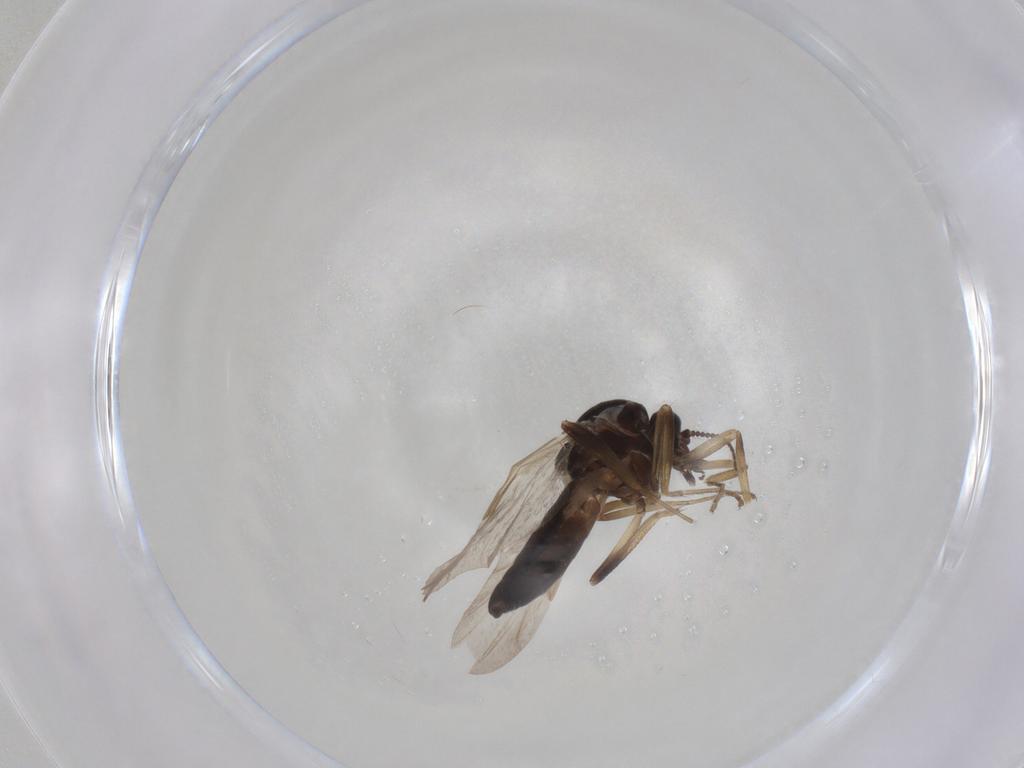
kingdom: Animalia
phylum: Arthropoda
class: Insecta
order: Diptera
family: Ceratopogonidae
